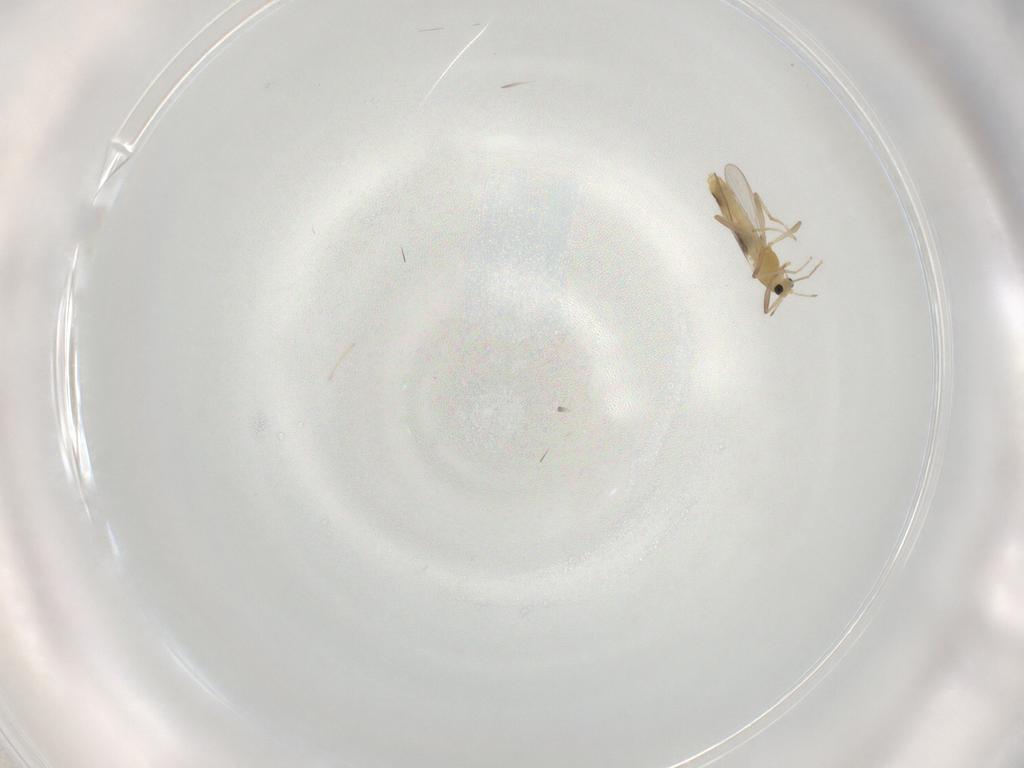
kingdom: Animalia
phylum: Arthropoda
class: Insecta
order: Diptera
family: Chironomidae
